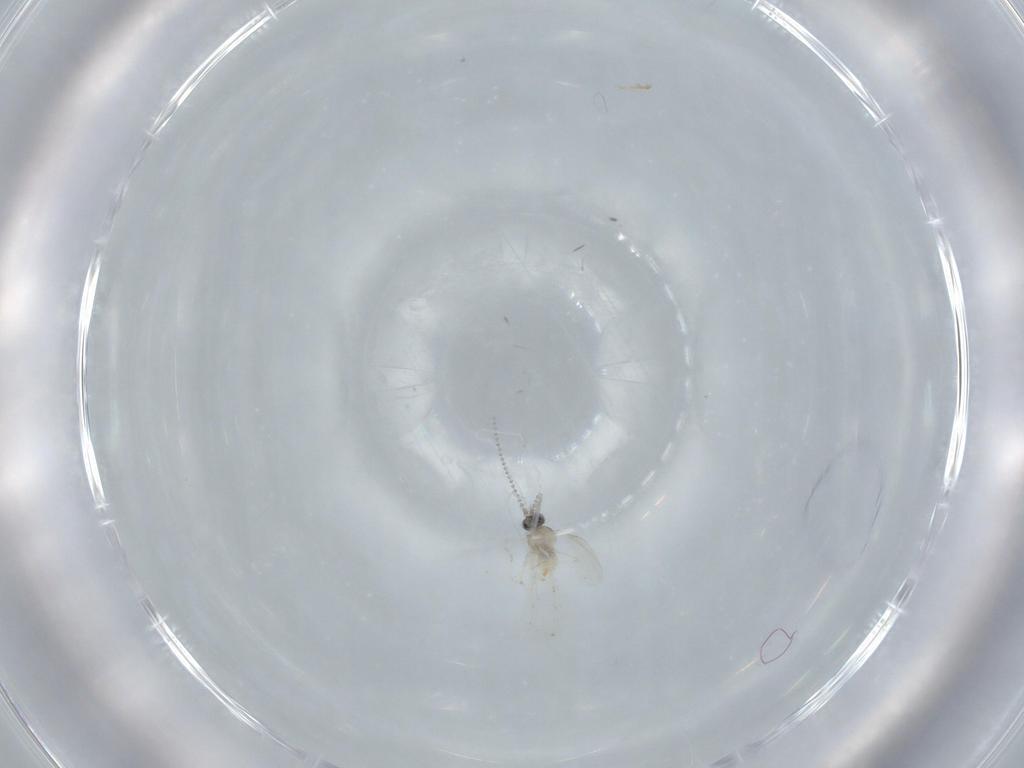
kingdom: Animalia
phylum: Arthropoda
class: Insecta
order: Diptera
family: Cecidomyiidae
